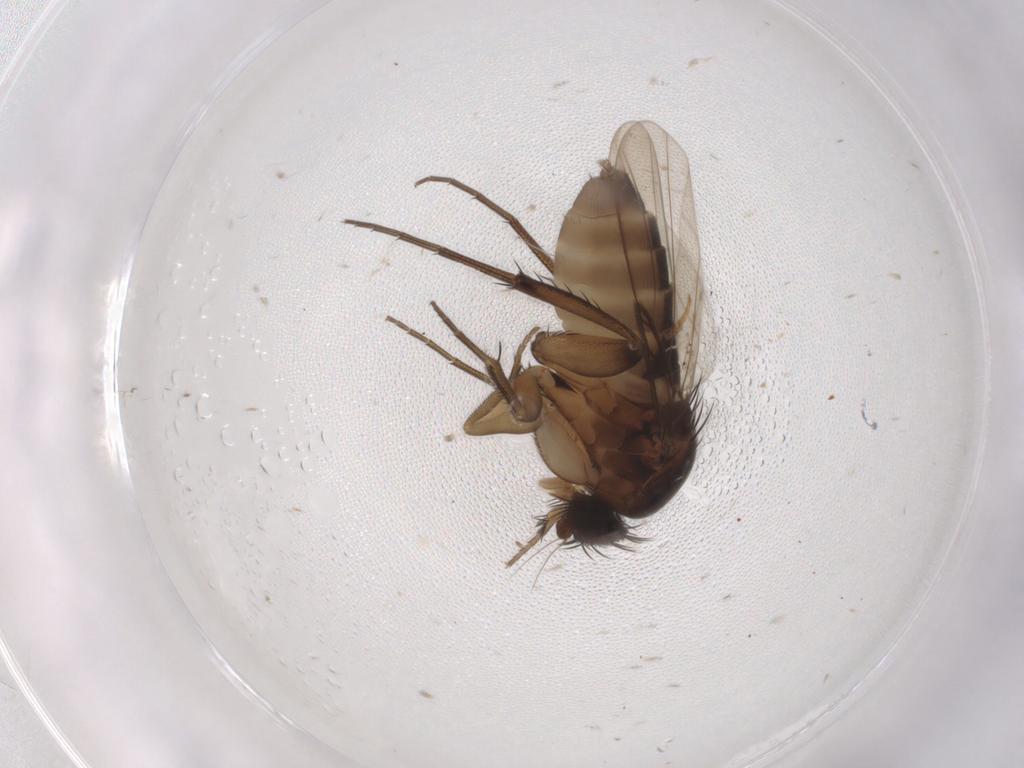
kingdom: Animalia
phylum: Arthropoda
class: Insecta
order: Diptera
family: Phoridae
